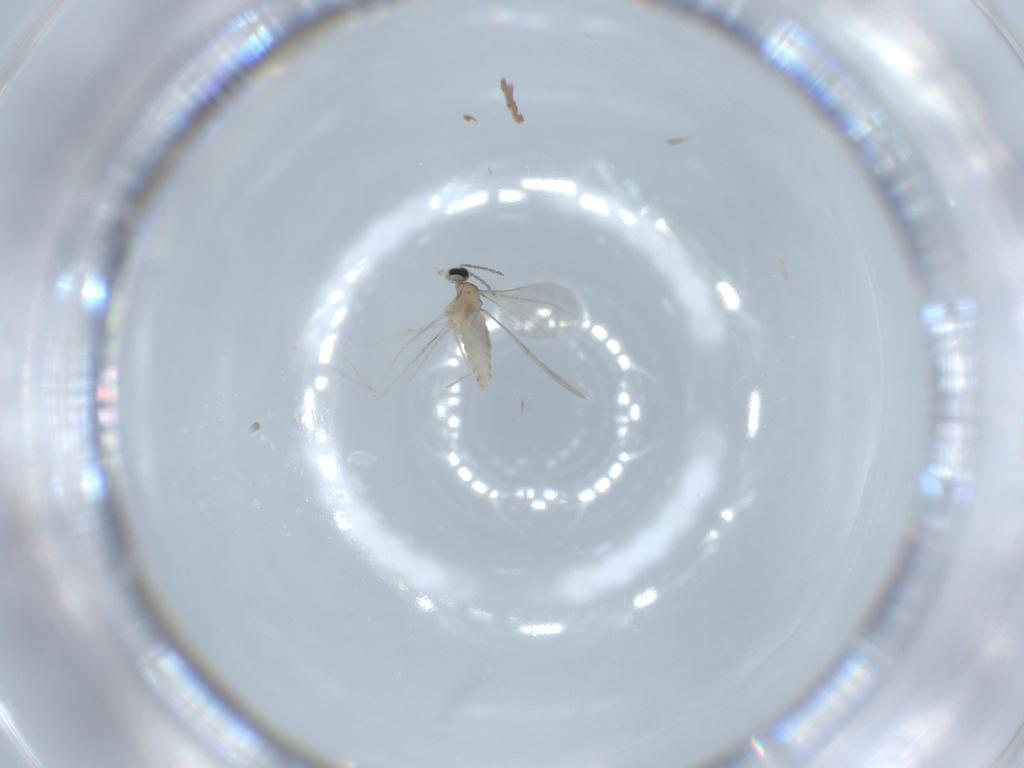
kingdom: Animalia
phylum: Arthropoda
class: Insecta
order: Diptera
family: Cecidomyiidae
